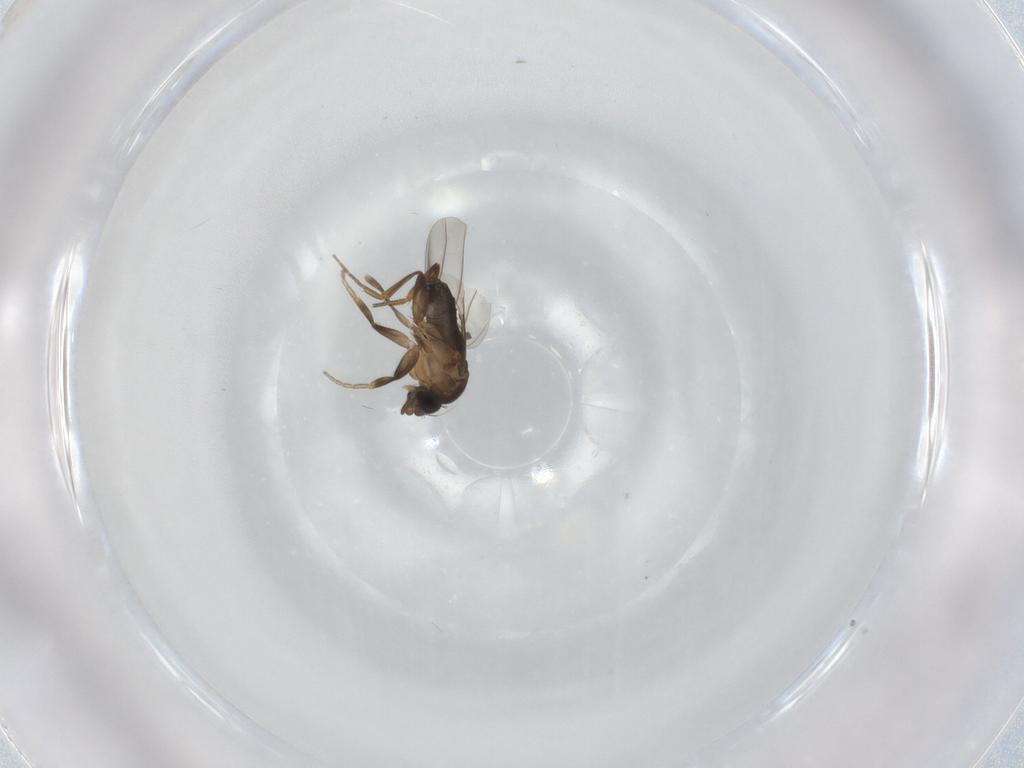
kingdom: Animalia
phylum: Arthropoda
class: Insecta
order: Diptera
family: Phoridae
